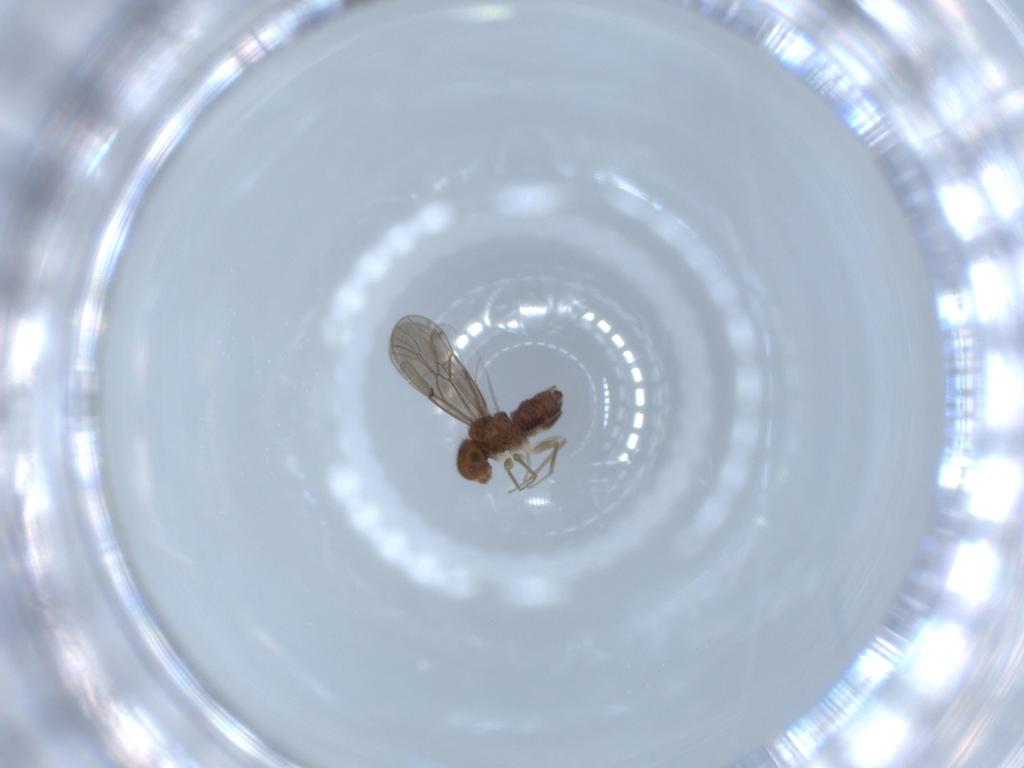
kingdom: Animalia
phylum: Arthropoda
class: Insecta
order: Psocodea
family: Ectopsocidae
